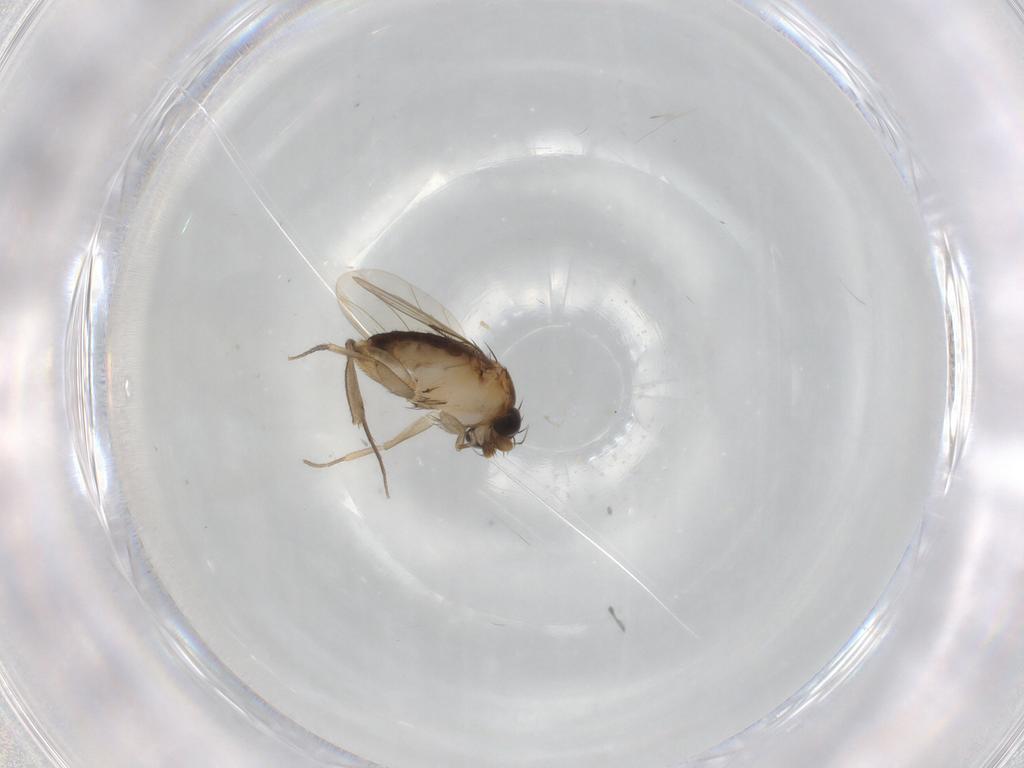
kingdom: Animalia
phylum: Arthropoda
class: Insecta
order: Diptera
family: Phoridae
